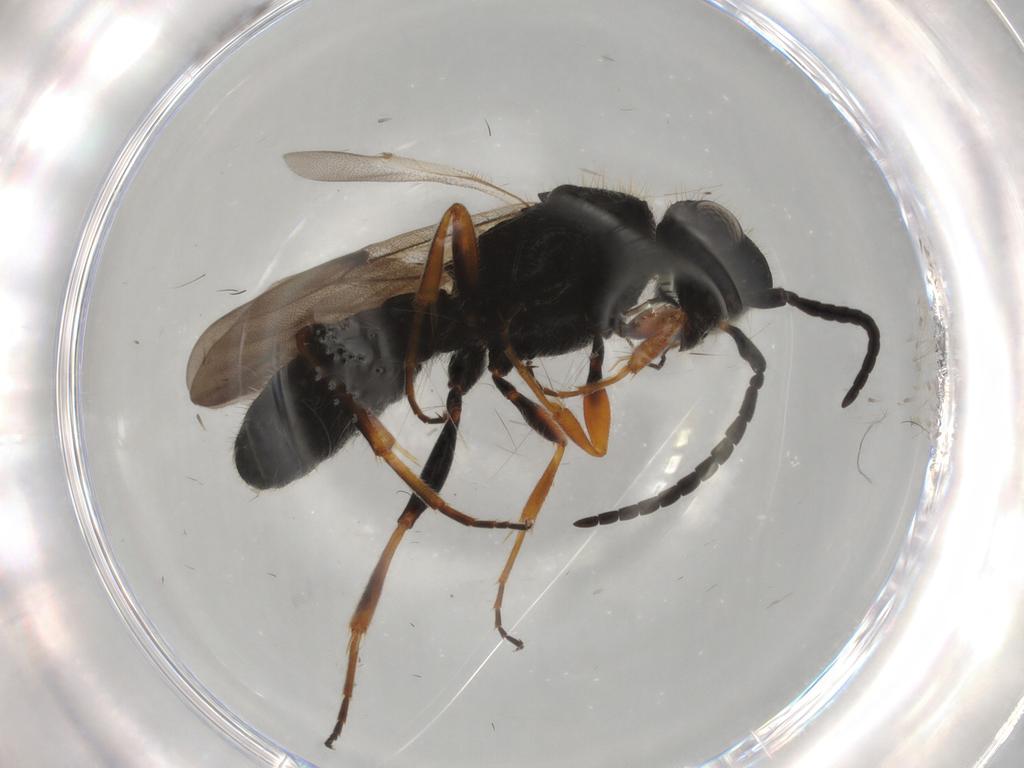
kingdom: Animalia
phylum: Arthropoda
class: Insecta
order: Hymenoptera
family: Scelionidae
